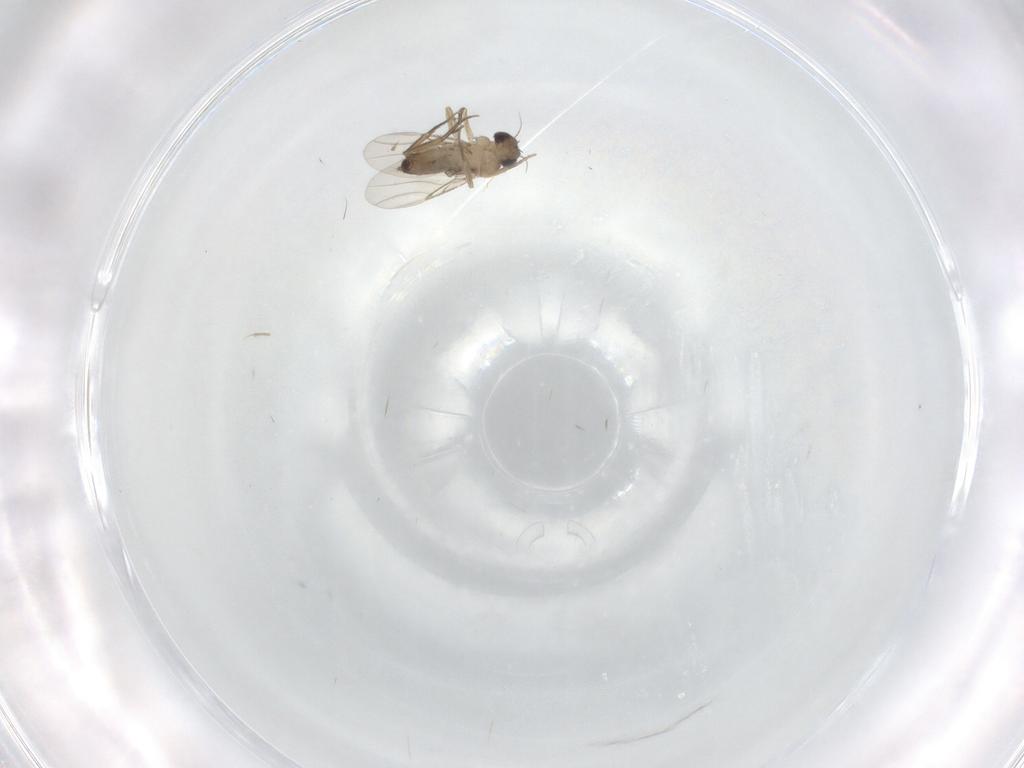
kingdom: Animalia
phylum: Arthropoda
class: Insecta
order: Diptera
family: Phoridae
